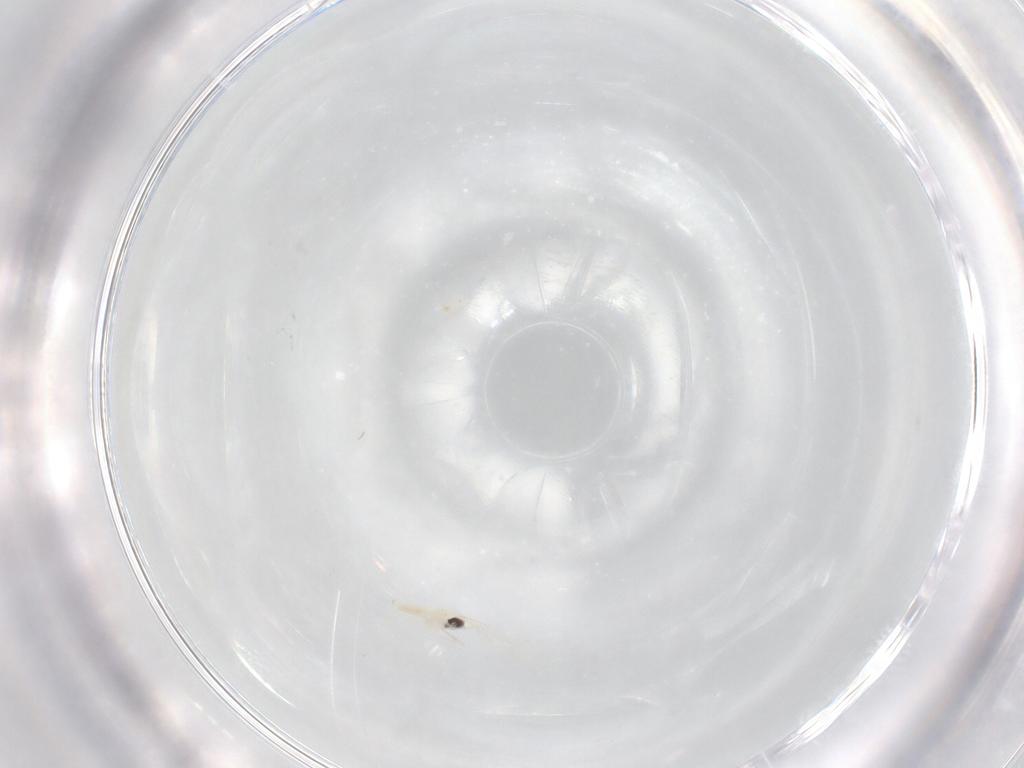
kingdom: Animalia
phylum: Arthropoda
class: Insecta
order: Diptera
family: Cecidomyiidae
